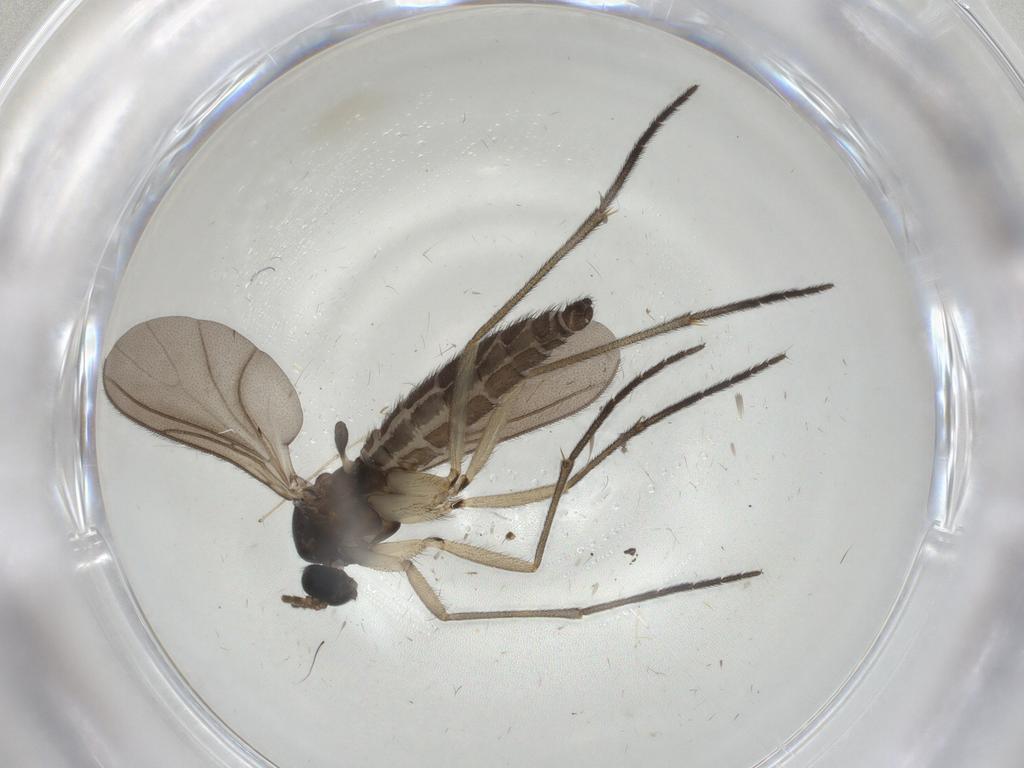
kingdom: Animalia
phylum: Arthropoda
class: Insecta
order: Diptera
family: Sciaridae
